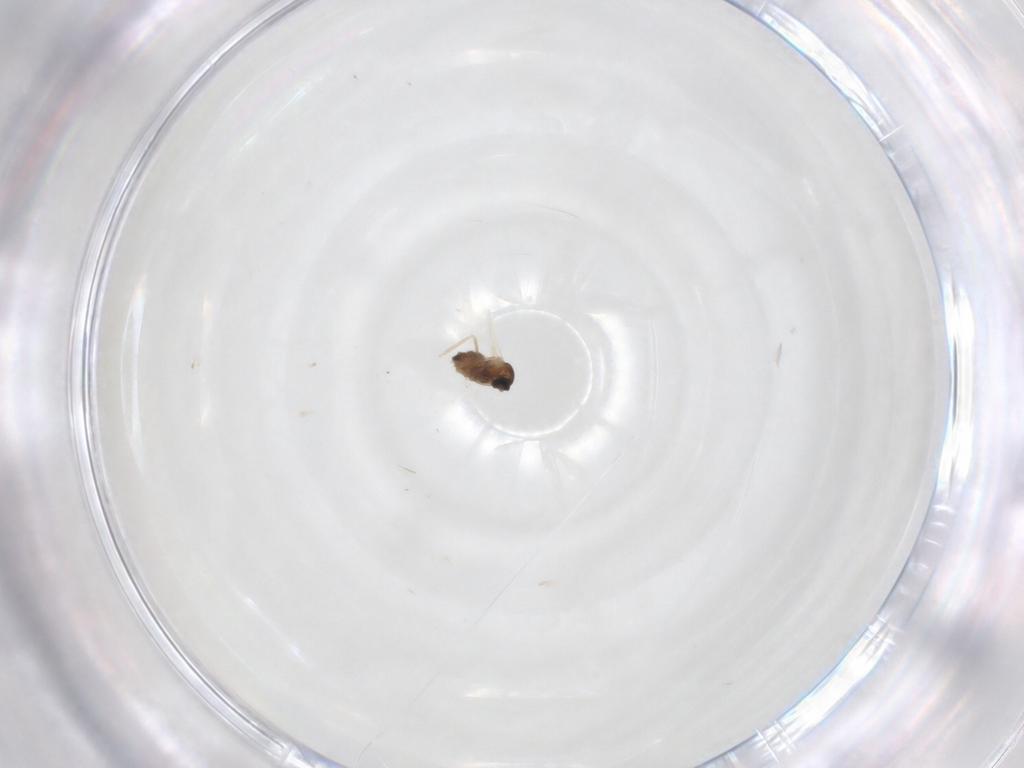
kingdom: Animalia
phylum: Arthropoda
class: Insecta
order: Diptera
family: Cecidomyiidae
